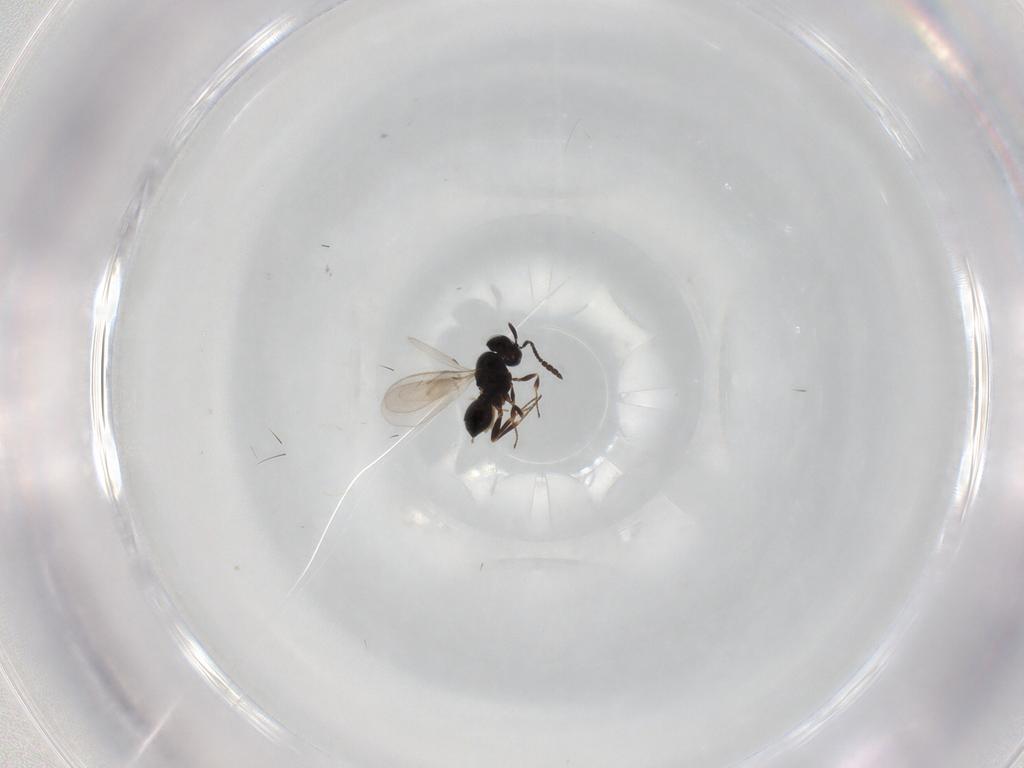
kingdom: Animalia
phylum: Arthropoda
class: Insecta
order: Hymenoptera
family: Scelionidae
